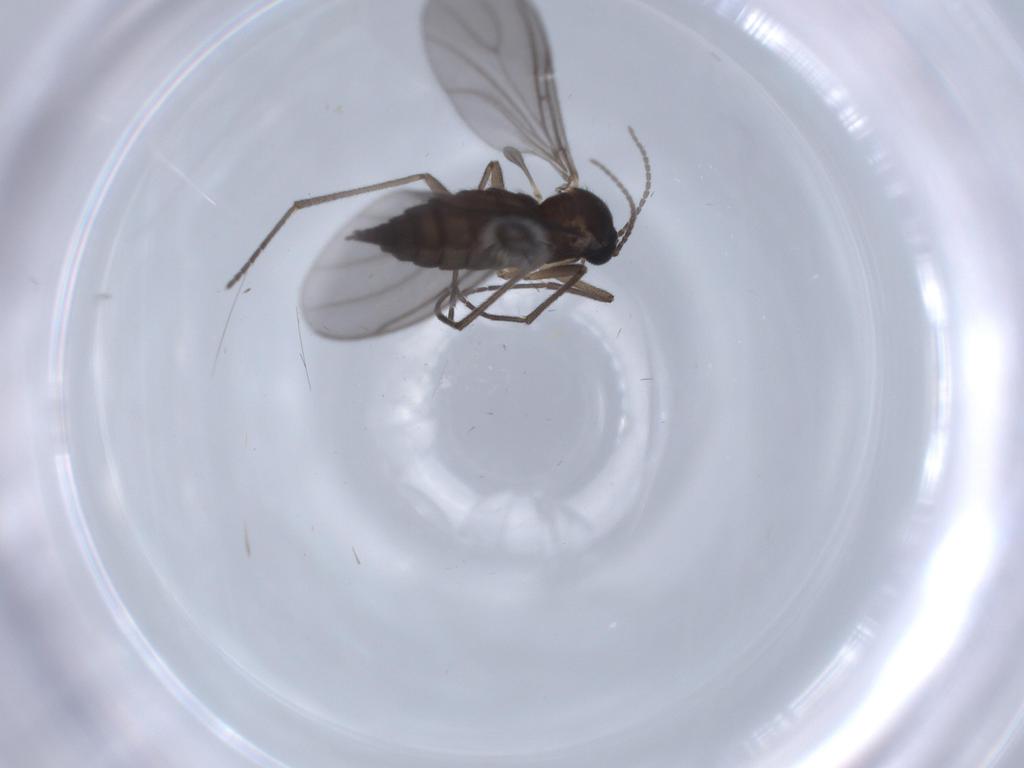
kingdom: Animalia
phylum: Arthropoda
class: Insecta
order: Diptera
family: Sciaridae
